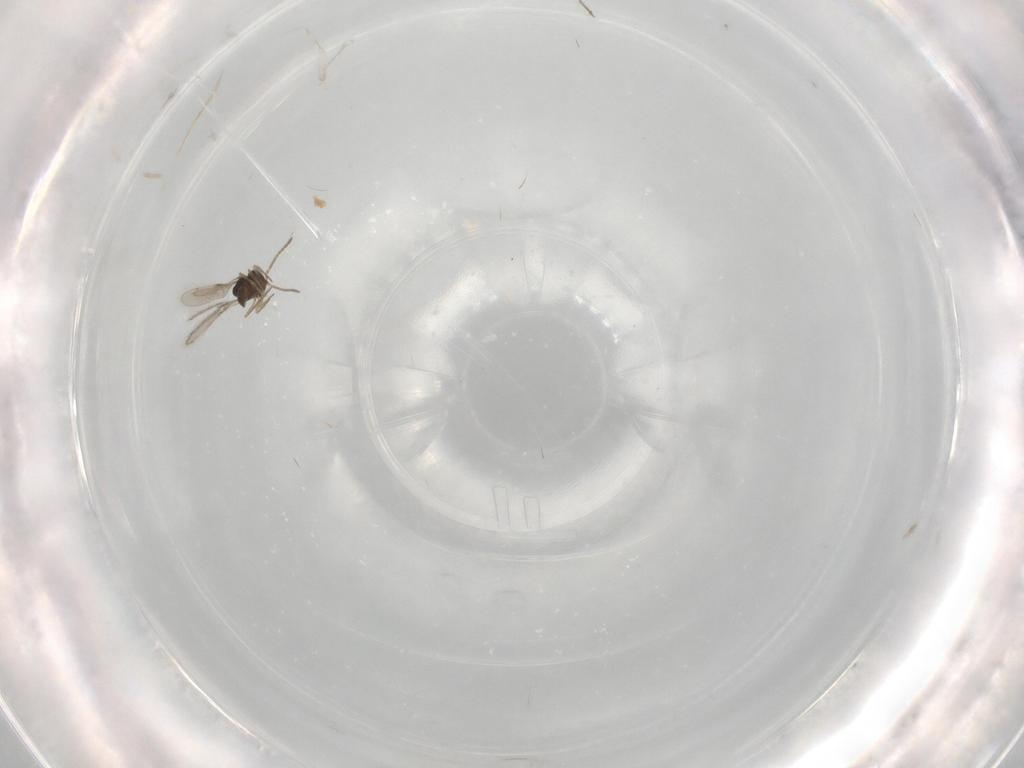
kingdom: Animalia
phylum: Arthropoda
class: Insecta
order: Hymenoptera
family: Scelionidae
